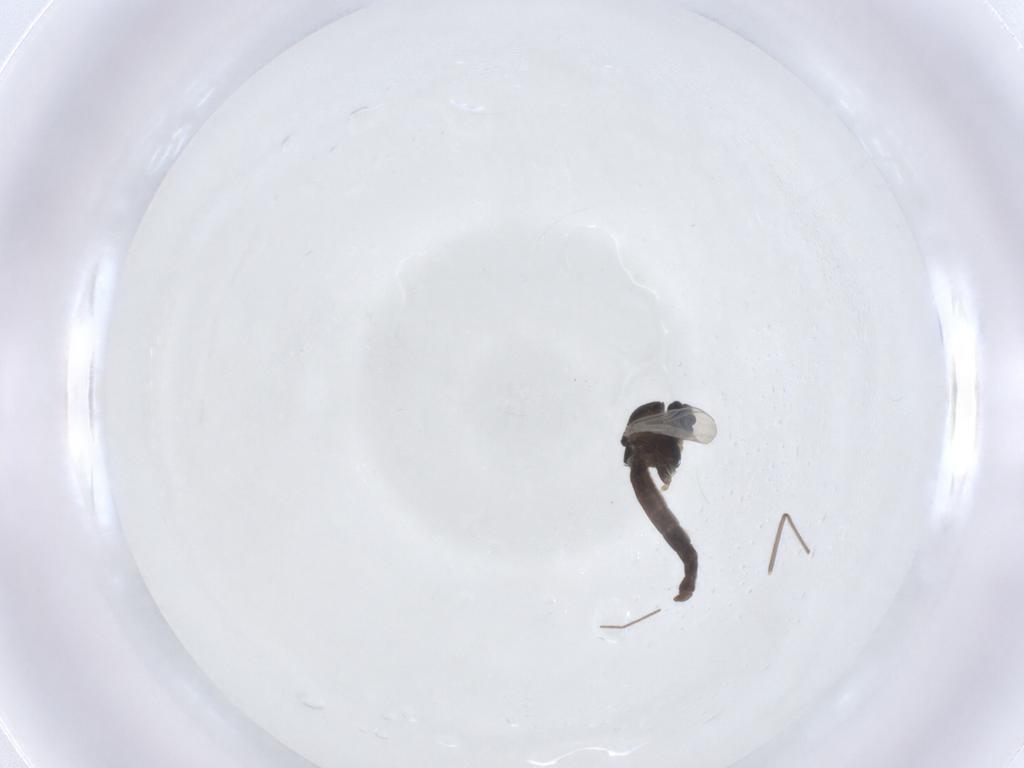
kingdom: Animalia
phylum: Arthropoda
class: Insecta
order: Diptera
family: Chironomidae
